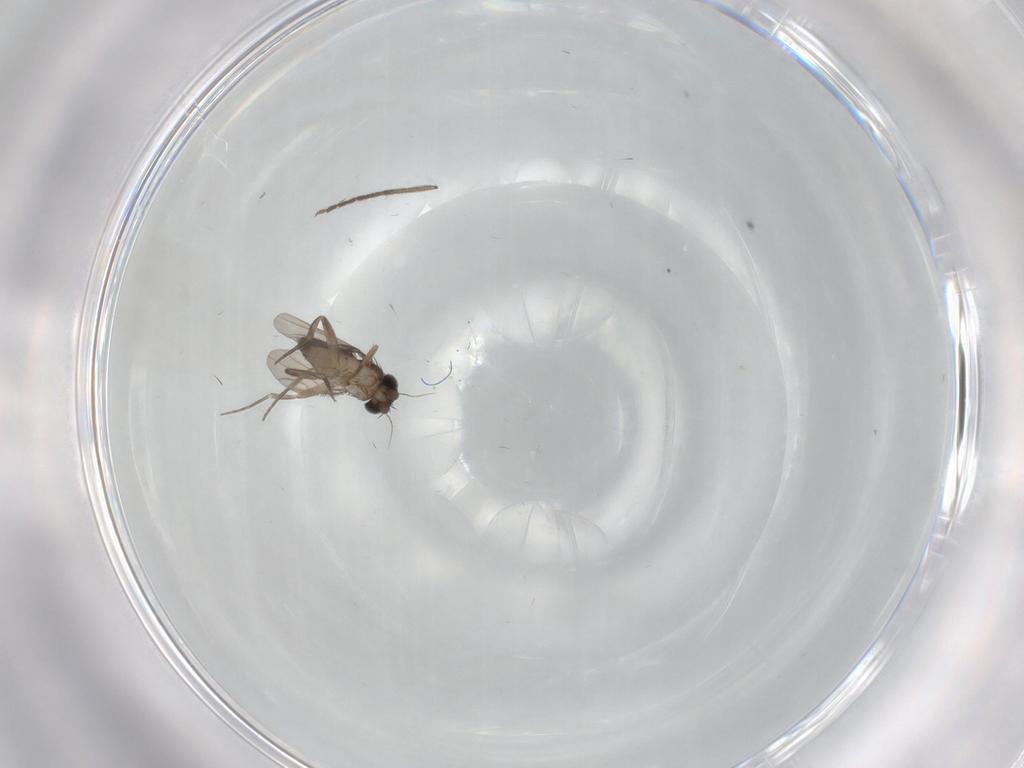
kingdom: Animalia
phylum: Arthropoda
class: Insecta
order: Diptera
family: Phoridae
